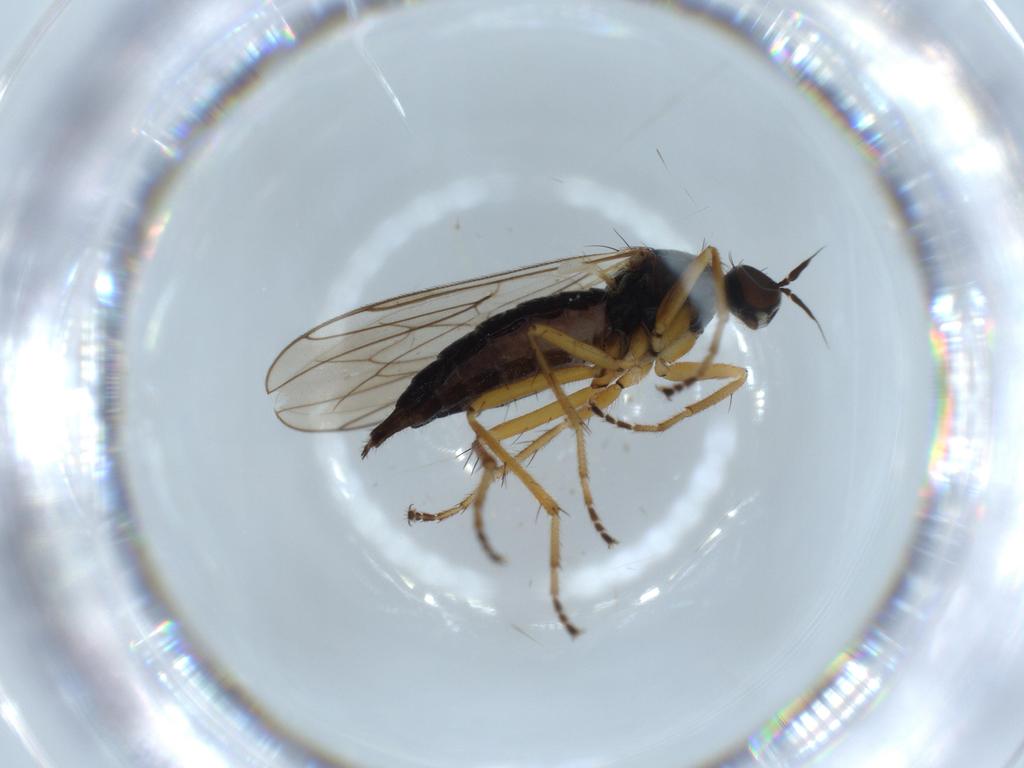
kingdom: Animalia
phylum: Arthropoda
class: Insecta
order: Diptera
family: Hybotidae
